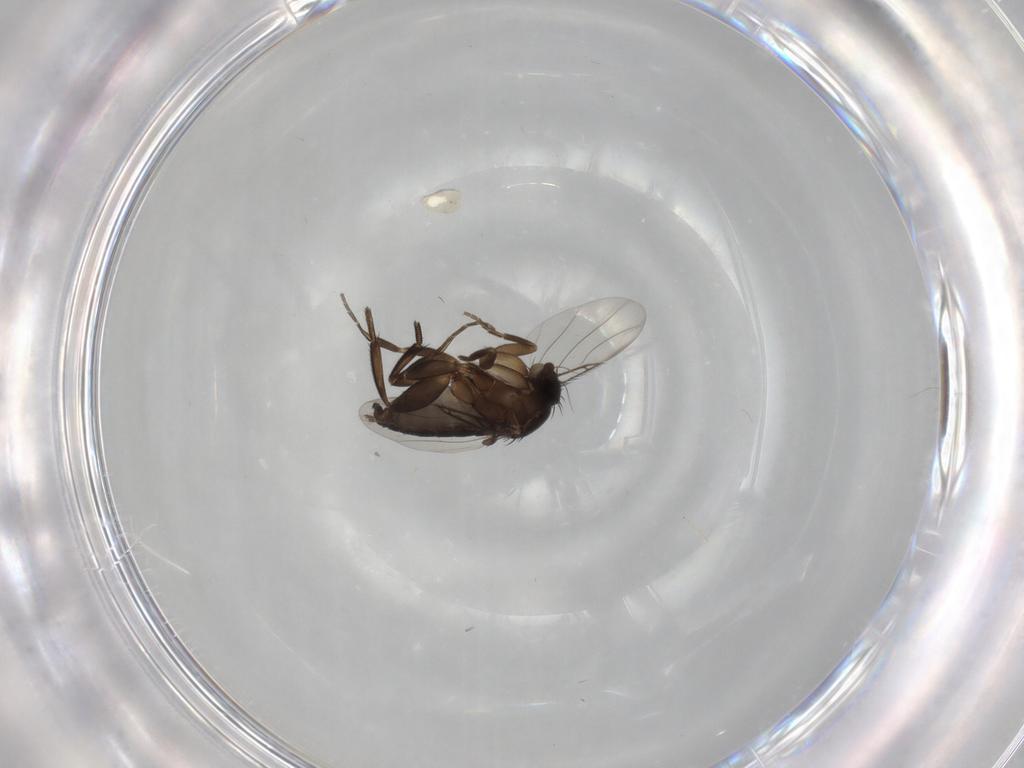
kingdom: Animalia
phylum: Arthropoda
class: Insecta
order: Diptera
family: Phoridae
